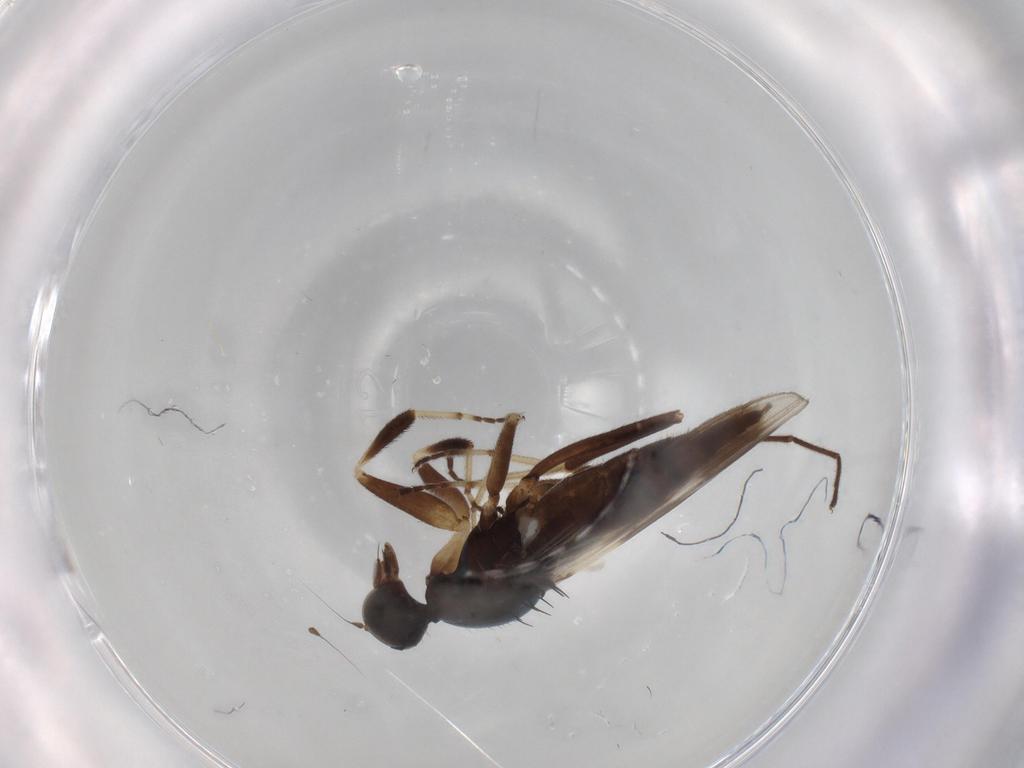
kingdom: Animalia
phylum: Arthropoda
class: Insecta
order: Diptera
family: Hybotidae
